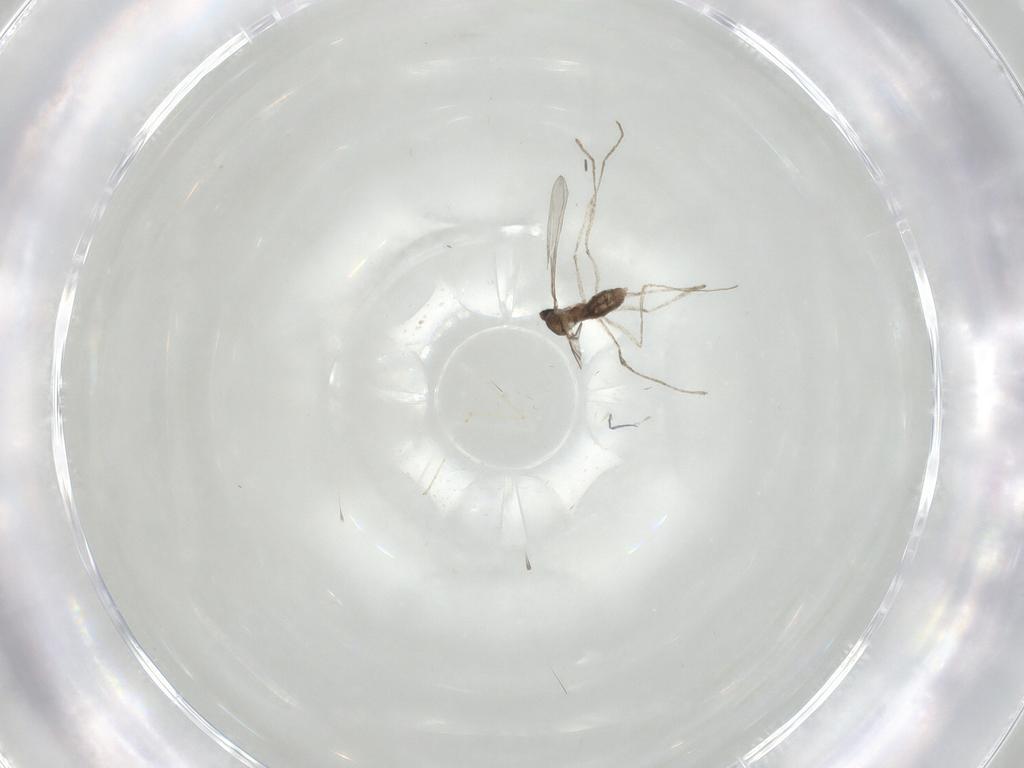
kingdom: Animalia
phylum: Arthropoda
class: Insecta
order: Diptera
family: Cecidomyiidae
